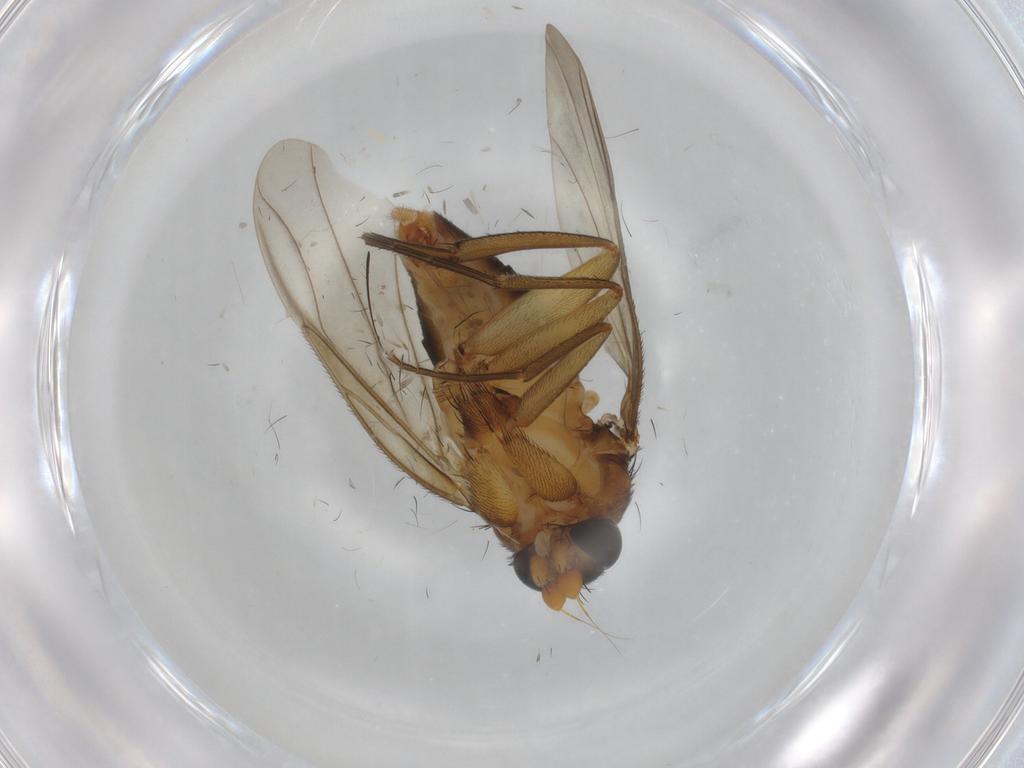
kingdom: Animalia
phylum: Arthropoda
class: Insecta
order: Diptera
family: Phoridae
